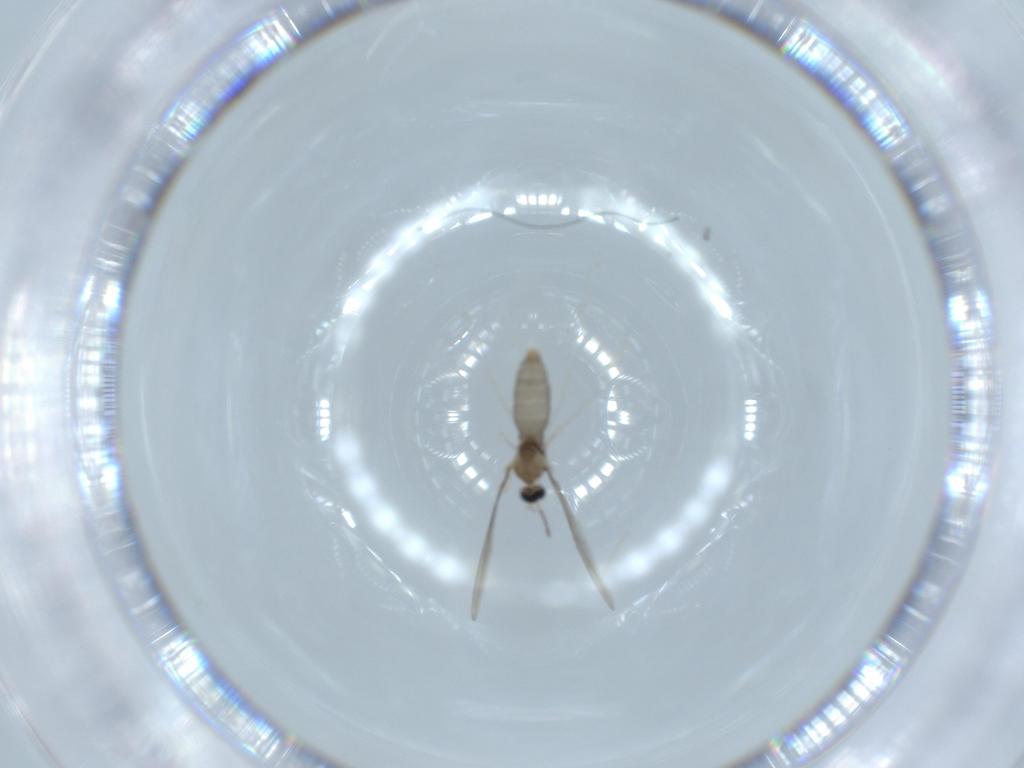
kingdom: Animalia
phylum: Arthropoda
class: Insecta
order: Diptera
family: Cecidomyiidae
